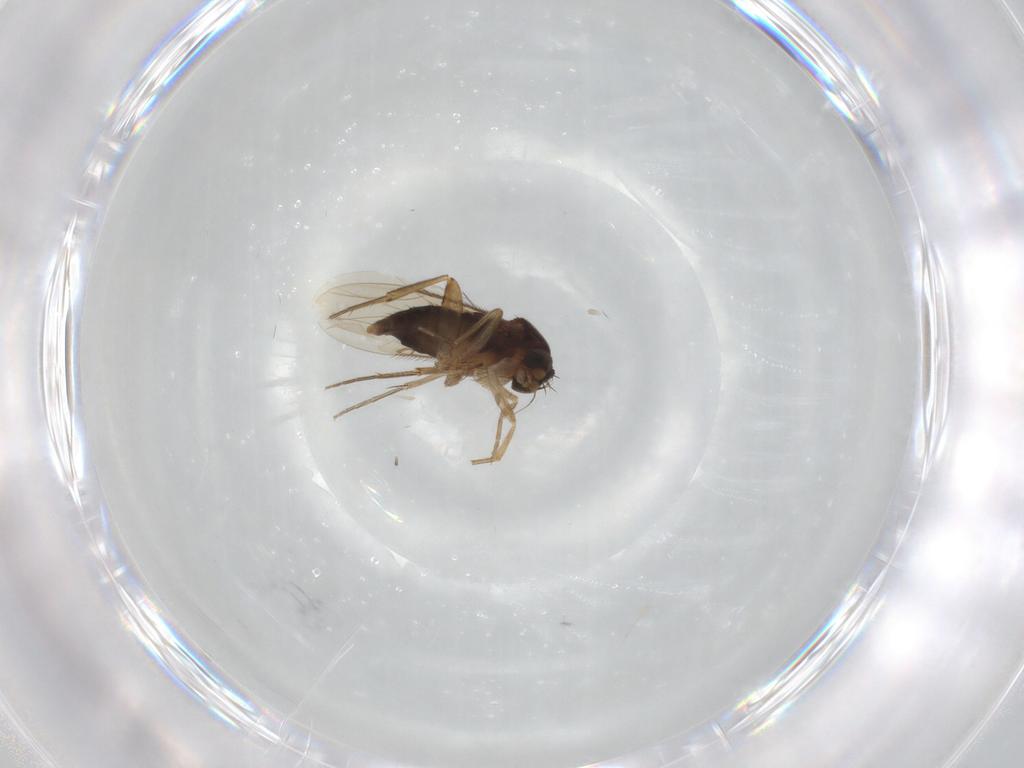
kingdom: Animalia
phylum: Arthropoda
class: Insecta
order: Diptera
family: Phoridae
